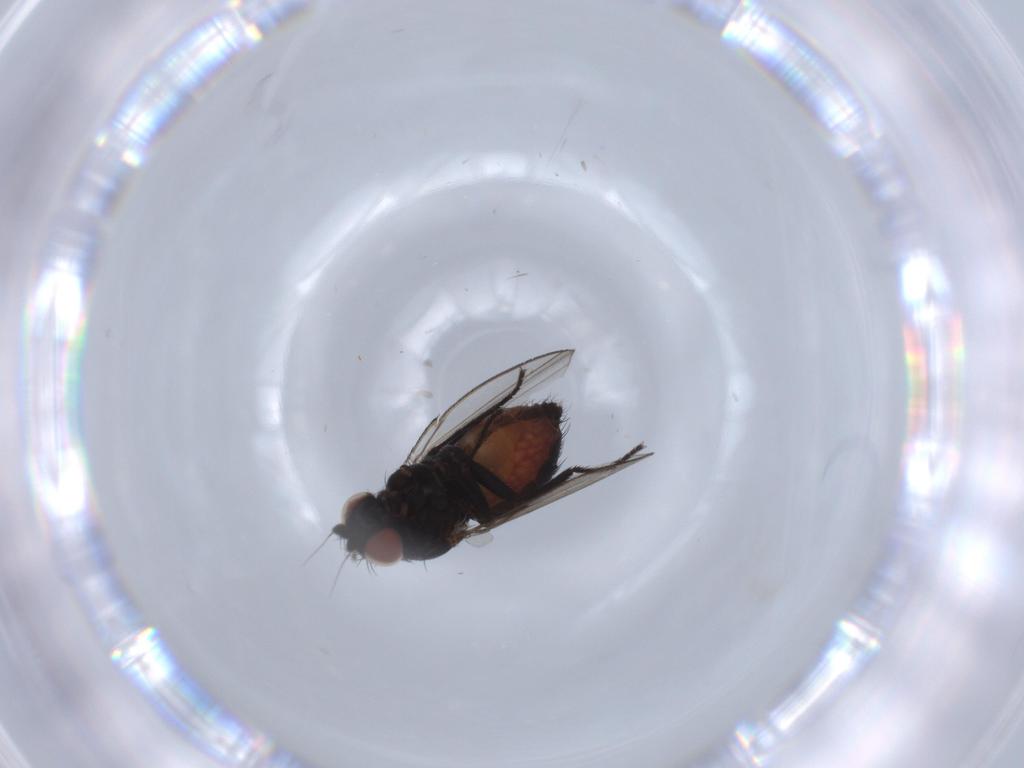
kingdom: Animalia
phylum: Arthropoda
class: Insecta
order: Diptera
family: Milichiidae
